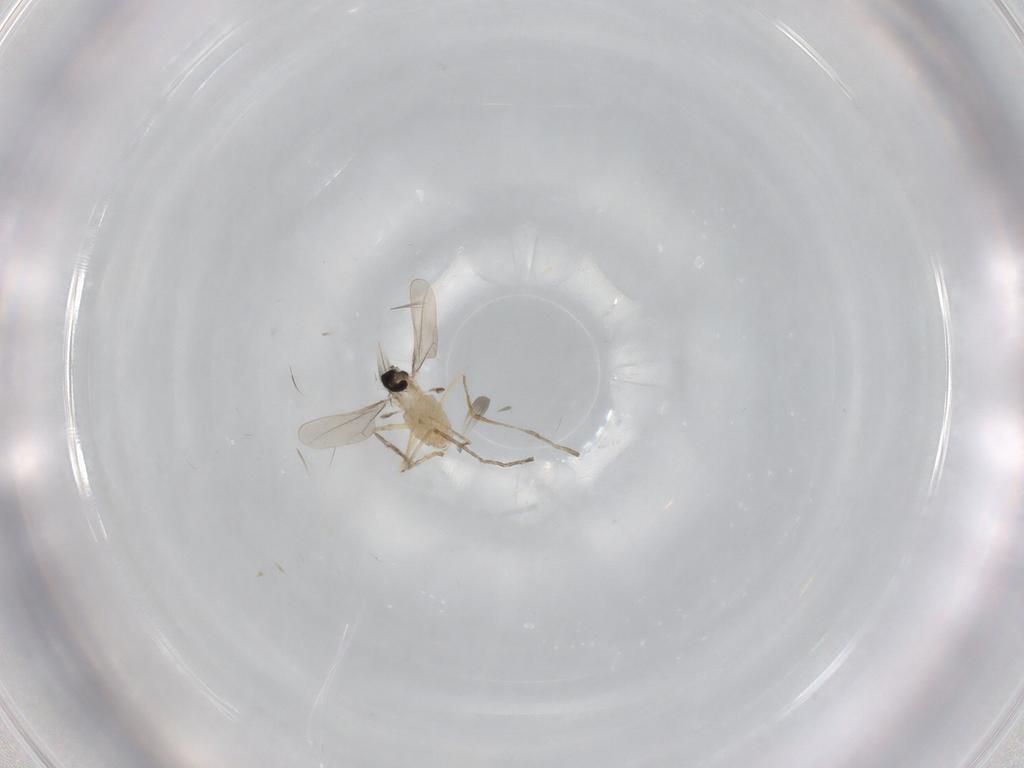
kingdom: Animalia
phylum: Arthropoda
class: Insecta
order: Diptera
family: Cecidomyiidae
